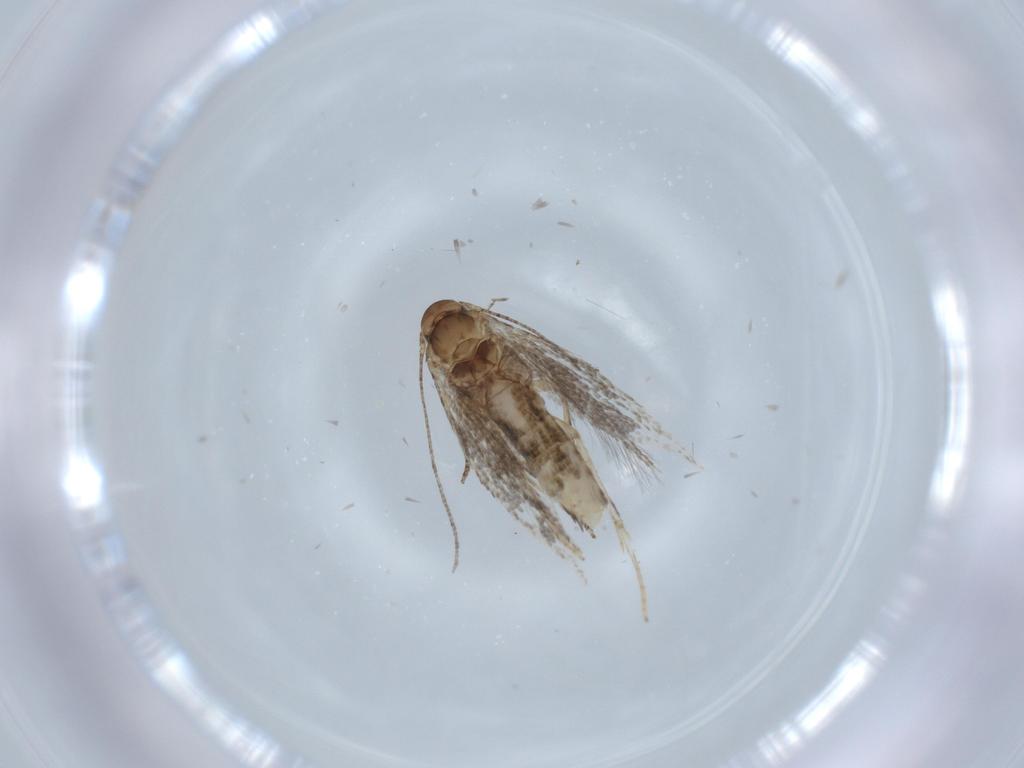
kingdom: Animalia
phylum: Arthropoda
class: Insecta
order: Lepidoptera
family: Gelechiidae
